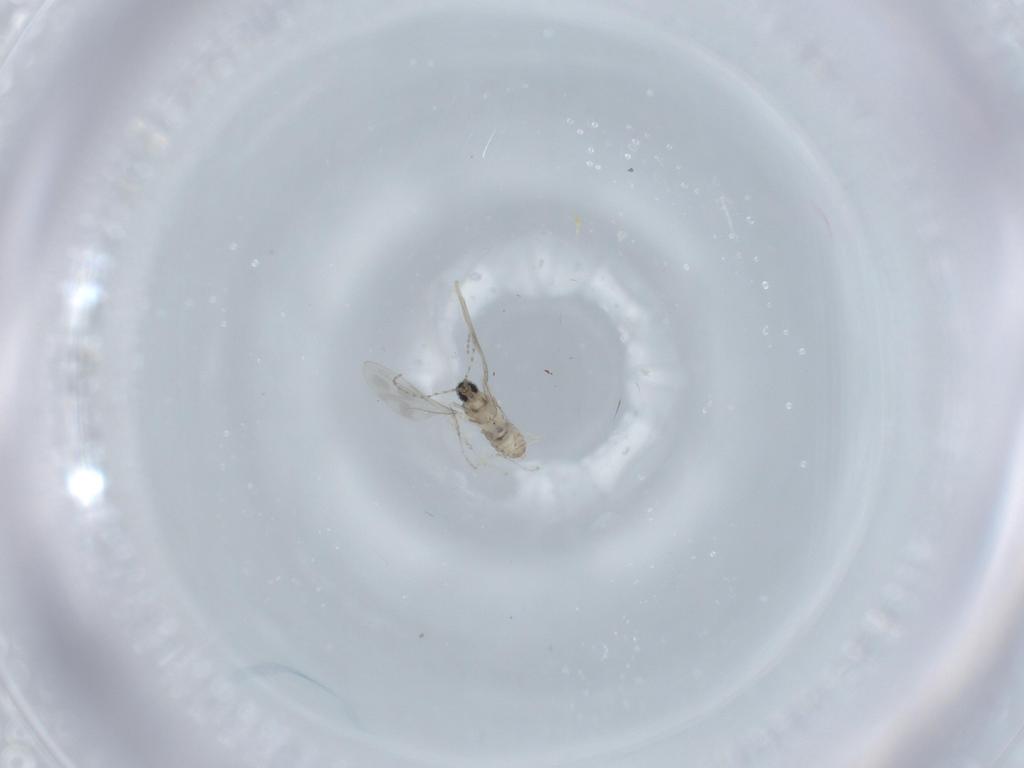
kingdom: Animalia
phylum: Arthropoda
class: Insecta
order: Diptera
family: Cecidomyiidae
